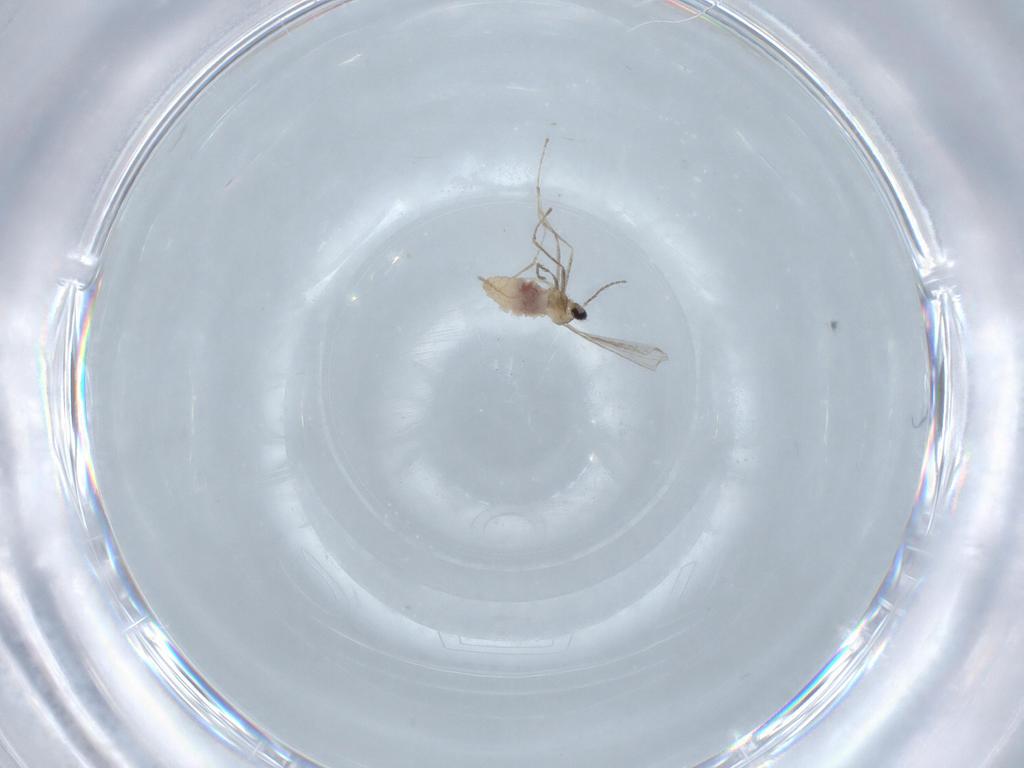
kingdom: Animalia
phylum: Arthropoda
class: Insecta
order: Diptera
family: Cecidomyiidae
